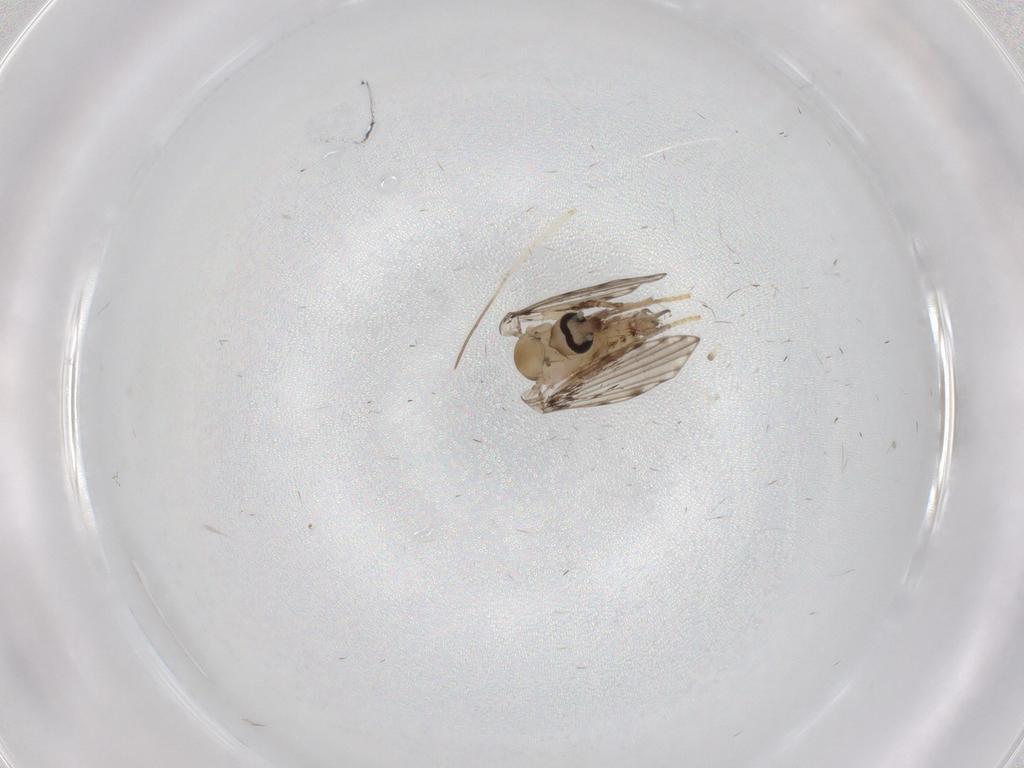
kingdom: Animalia
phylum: Arthropoda
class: Insecta
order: Diptera
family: Psychodidae
